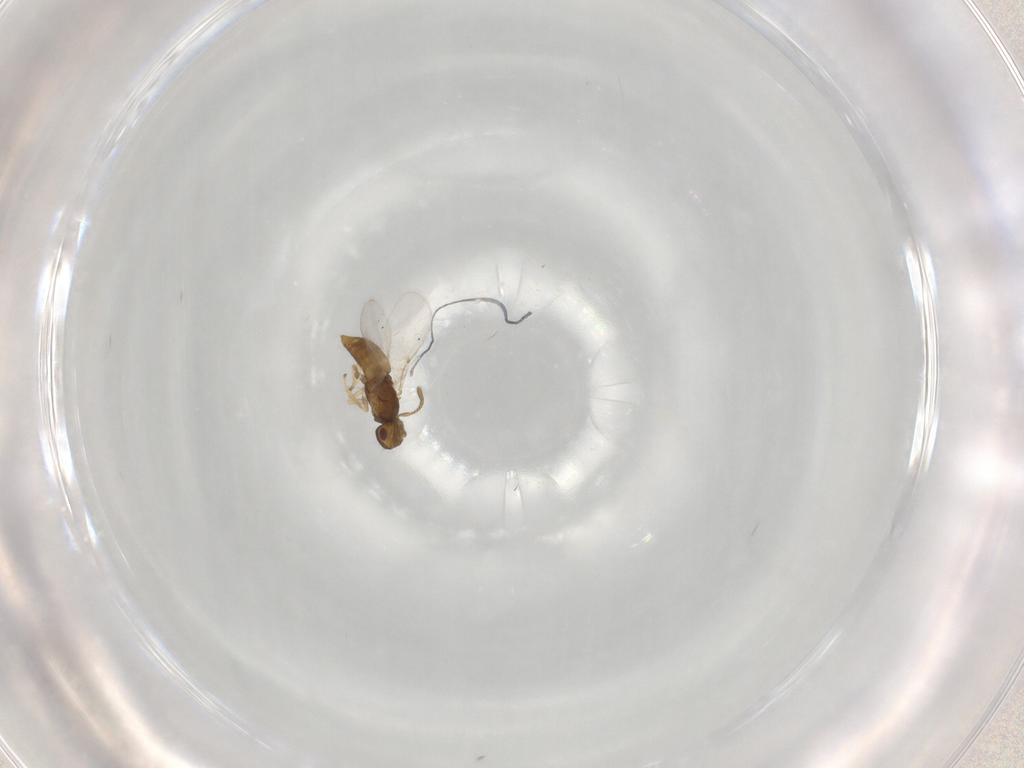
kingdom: Animalia
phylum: Arthropoda
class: Insecta
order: Hymenoptera
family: Encyrtidae
